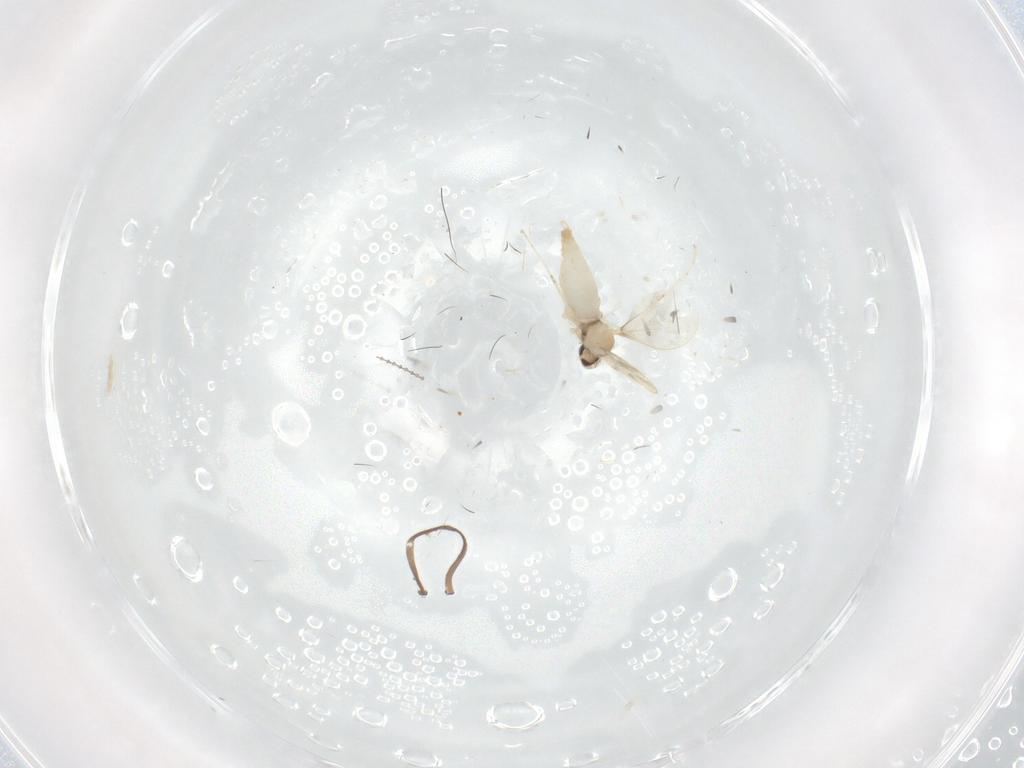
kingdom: Animalia
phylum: Arthropoda
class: Insecta
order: Diptera
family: Cecidomyiidae
